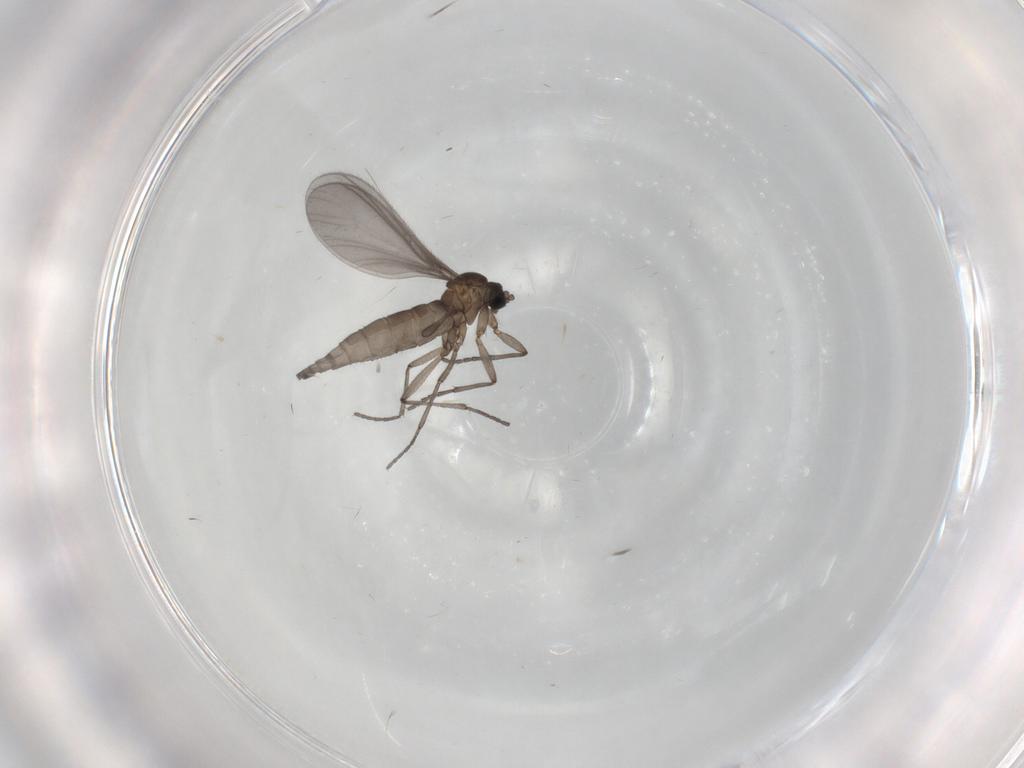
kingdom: Animalia
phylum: Arthropoda
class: Insecta
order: Diptera
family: Sciaridae
